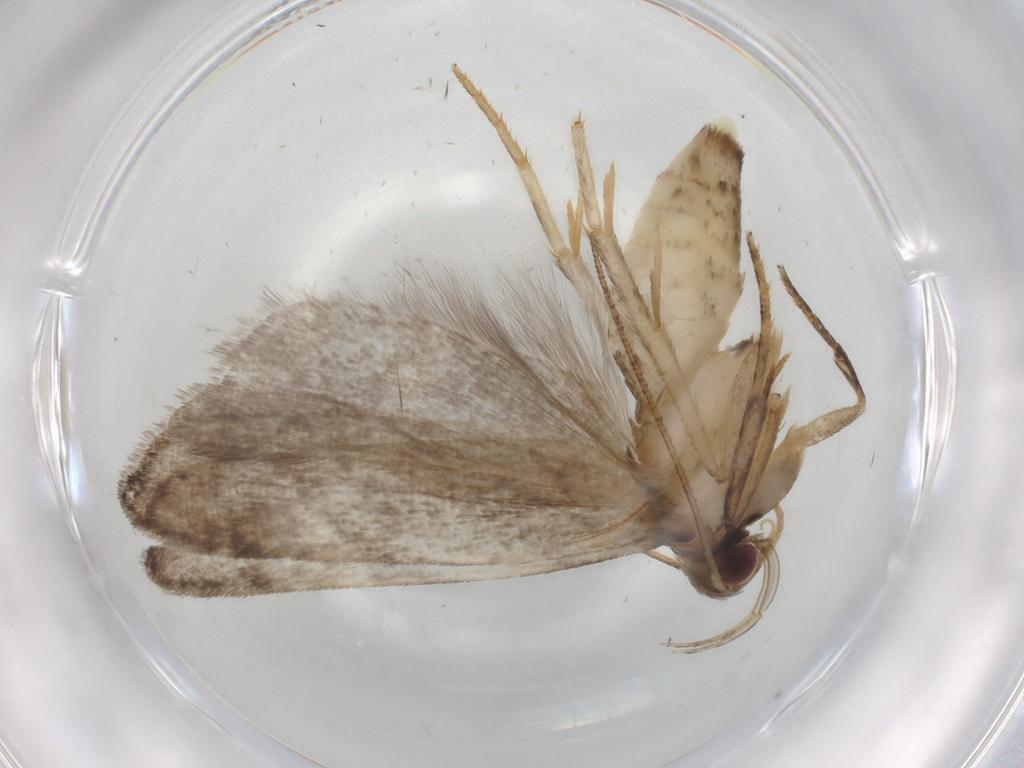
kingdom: Animalia
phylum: Arthropoda
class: Insecta
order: Lepidoptera
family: Gelechiidae
